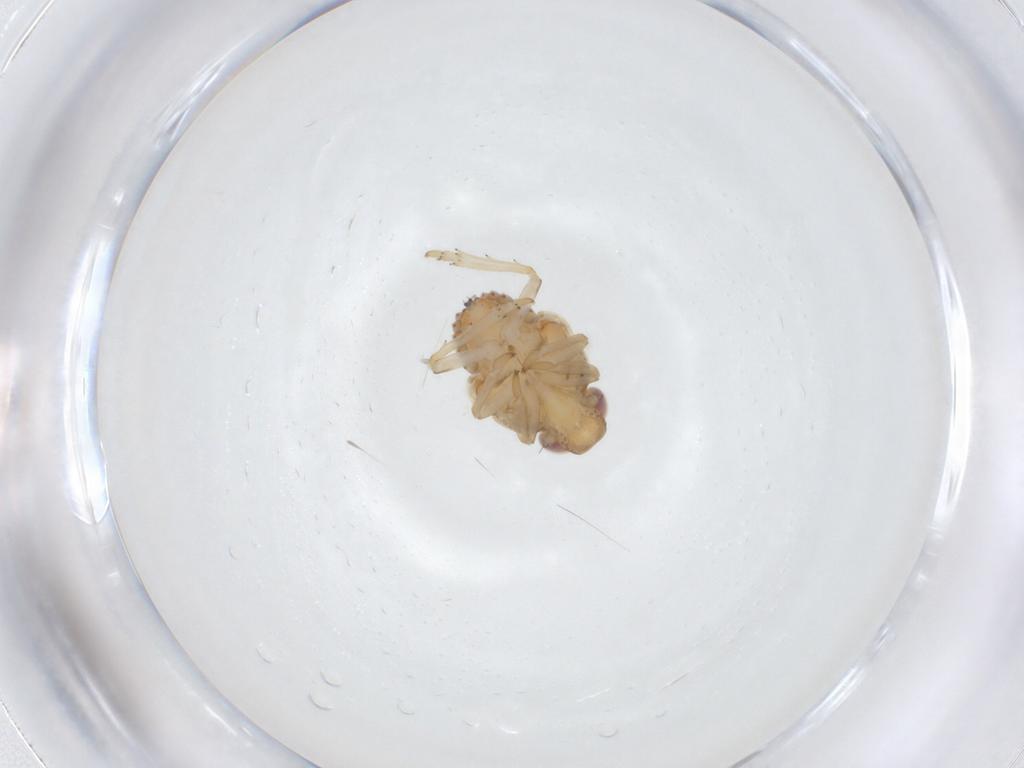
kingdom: Animalia
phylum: Arthropoda
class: Insecta
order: Hemiptera
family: Issidae
